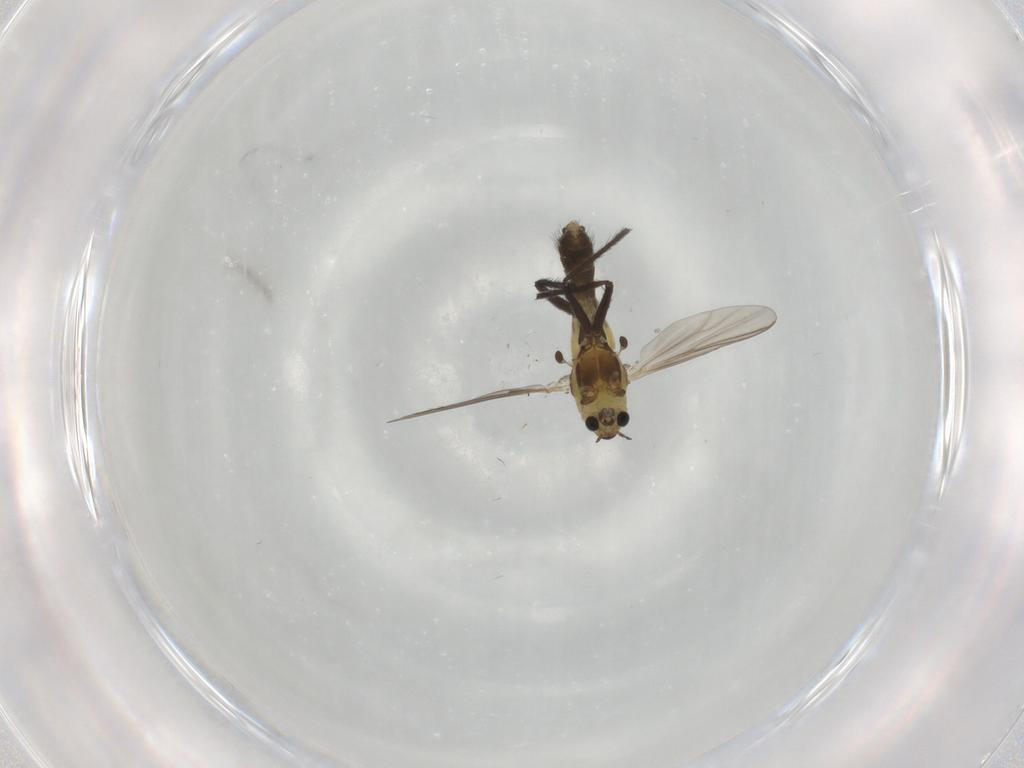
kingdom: Animalia
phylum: Arthropoda
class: Insecta
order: Diptera
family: Chironomidae
